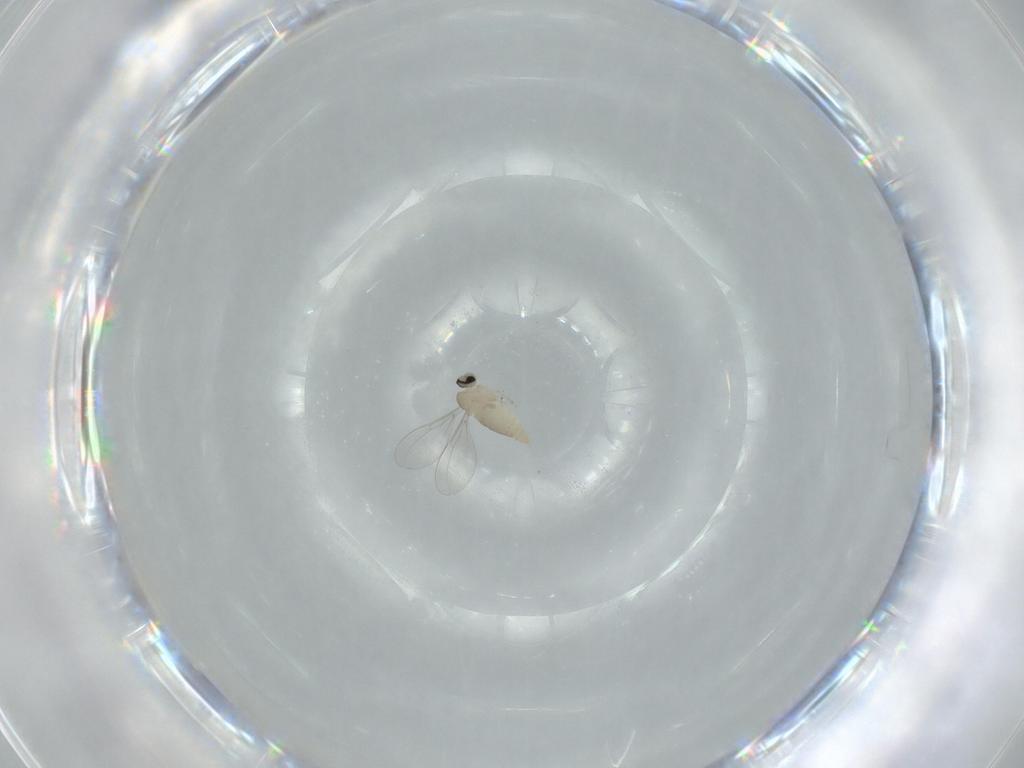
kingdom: Animalia
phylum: Arthropoda
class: Insecta
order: Diptera
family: Cecidomyiidae
